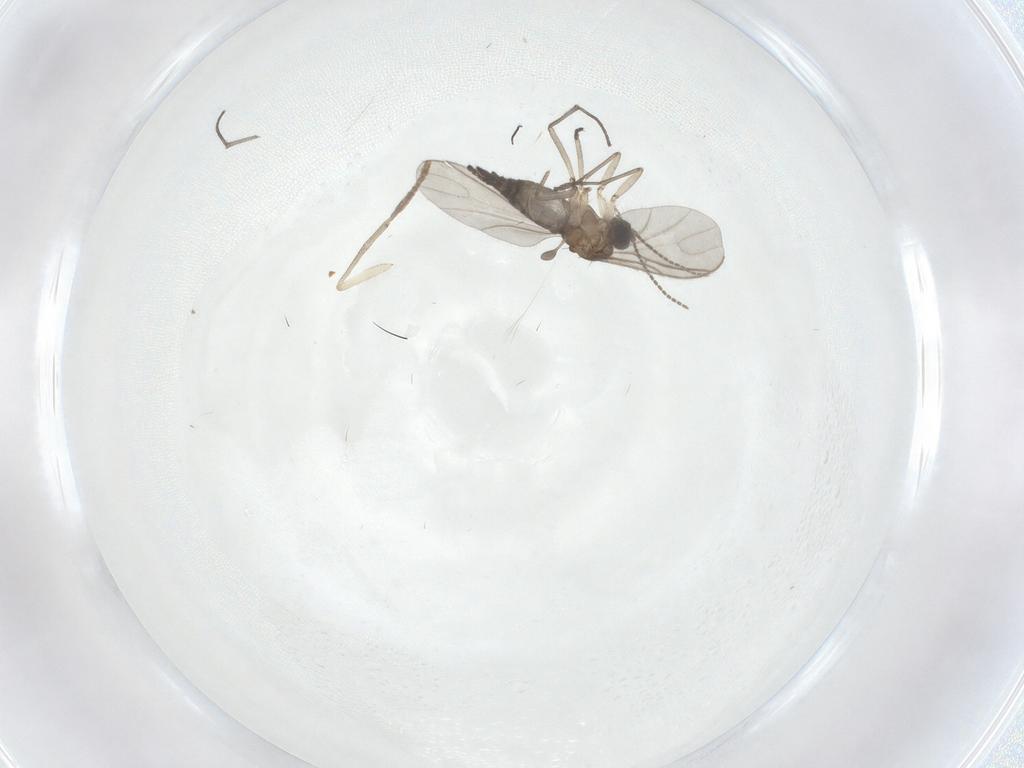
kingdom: Animalia
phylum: Arthropoda
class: Insecta
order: Diptera
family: Sciaridae
